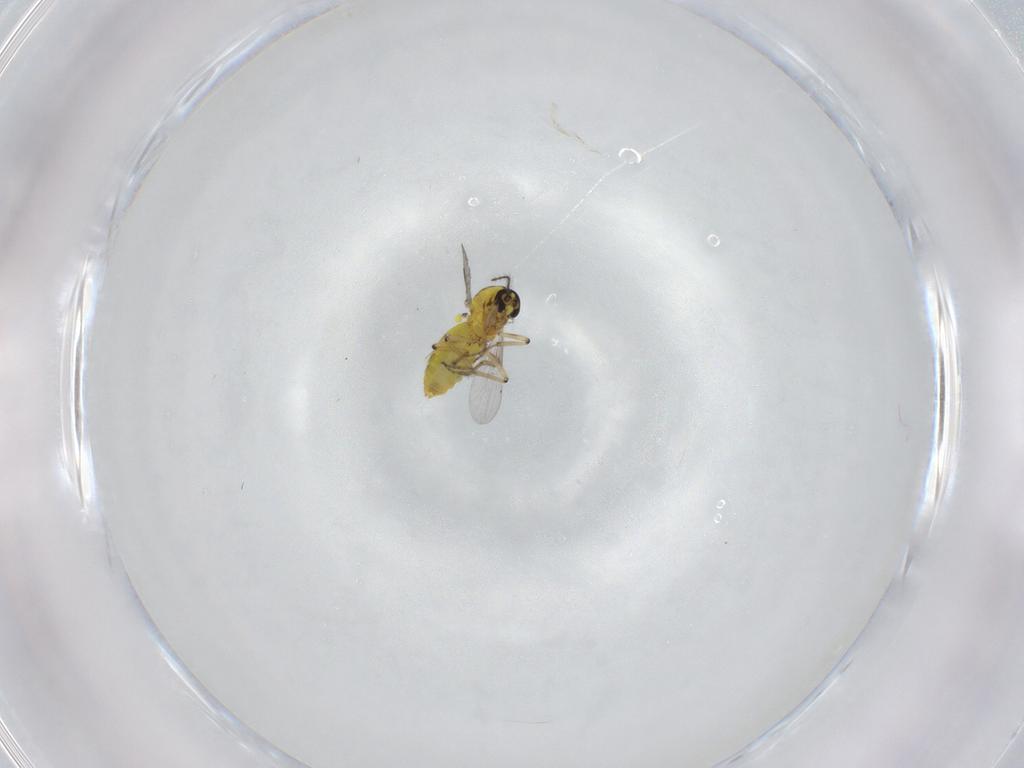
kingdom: Animalia
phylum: Arthropoda
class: Insecta
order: Diptera
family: Ceratopogonidae
